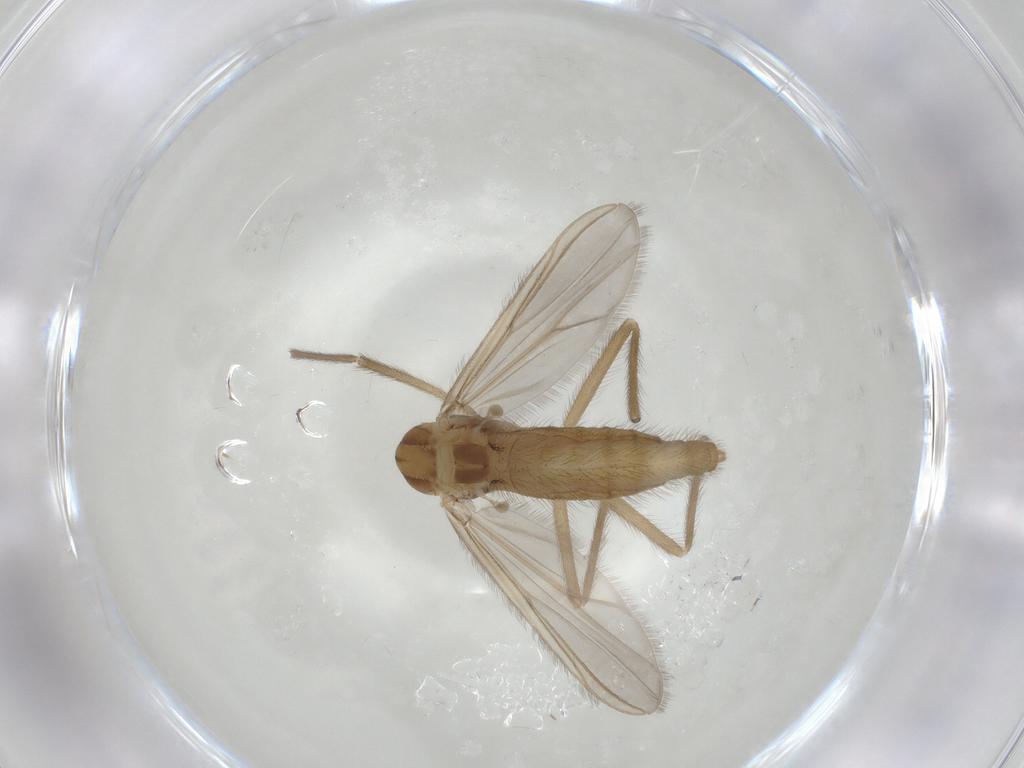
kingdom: Animalia
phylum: Arthropoda
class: Insecta
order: Diptera
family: Chironomidae
